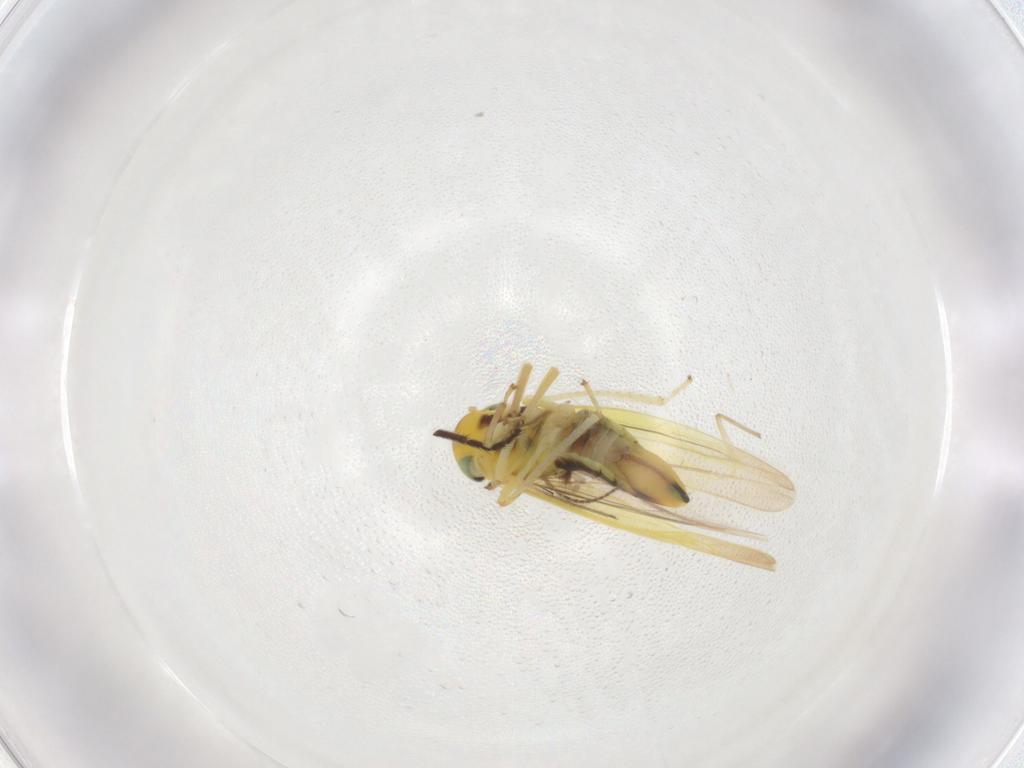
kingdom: Animalia
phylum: Arthropoda
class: Insecta
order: Hemiptera
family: Cicadellidae
